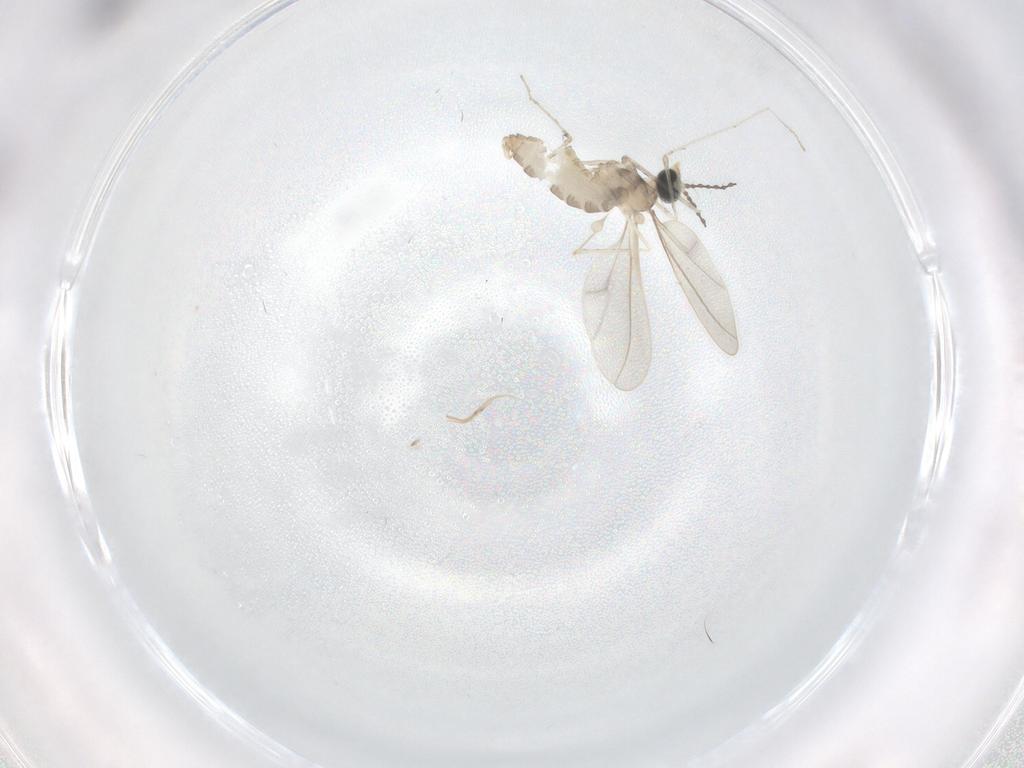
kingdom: Animalia
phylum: Arthropoda
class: Insecta
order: Diptera
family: Cecidomyiidae
